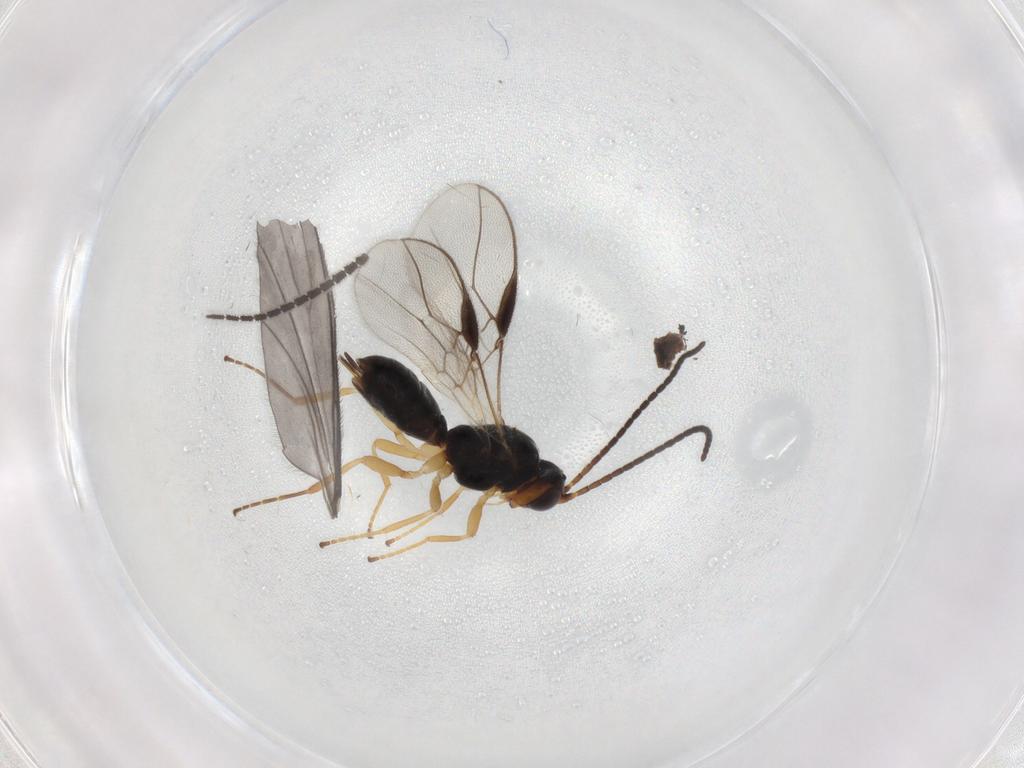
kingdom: Animalia
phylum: Arthropoda
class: Insecta
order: Hymenoptera
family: Braconidae
